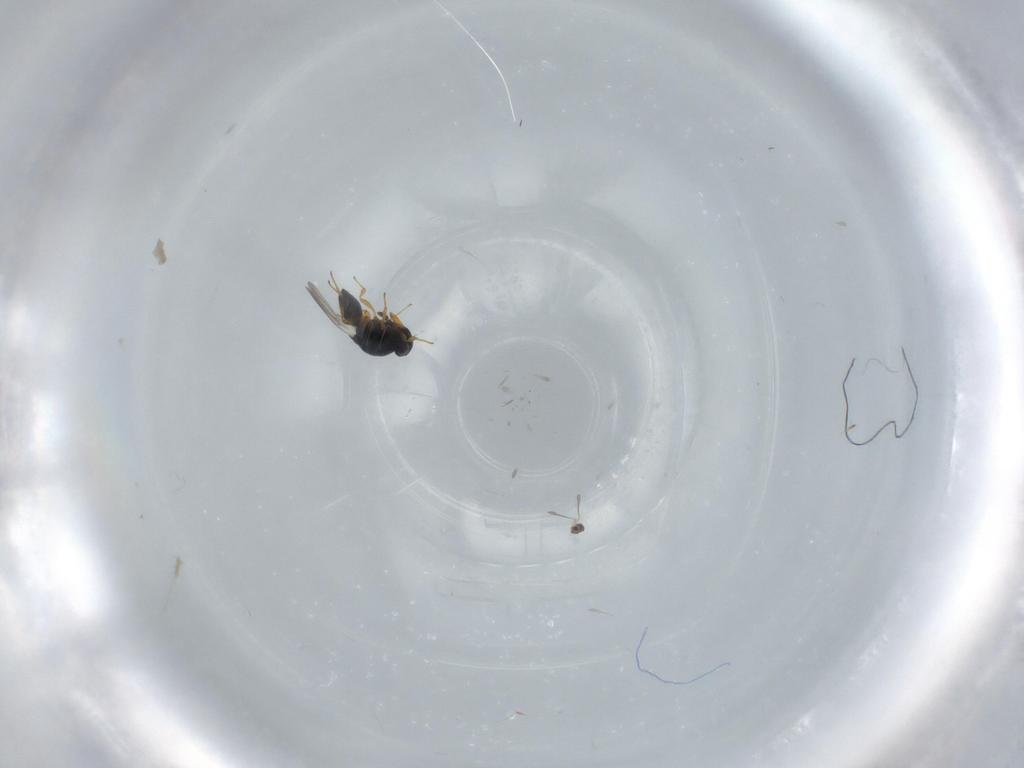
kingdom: Animalia
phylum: Arthropoda
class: Insecta
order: Hymenoptera
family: Platygastridae
